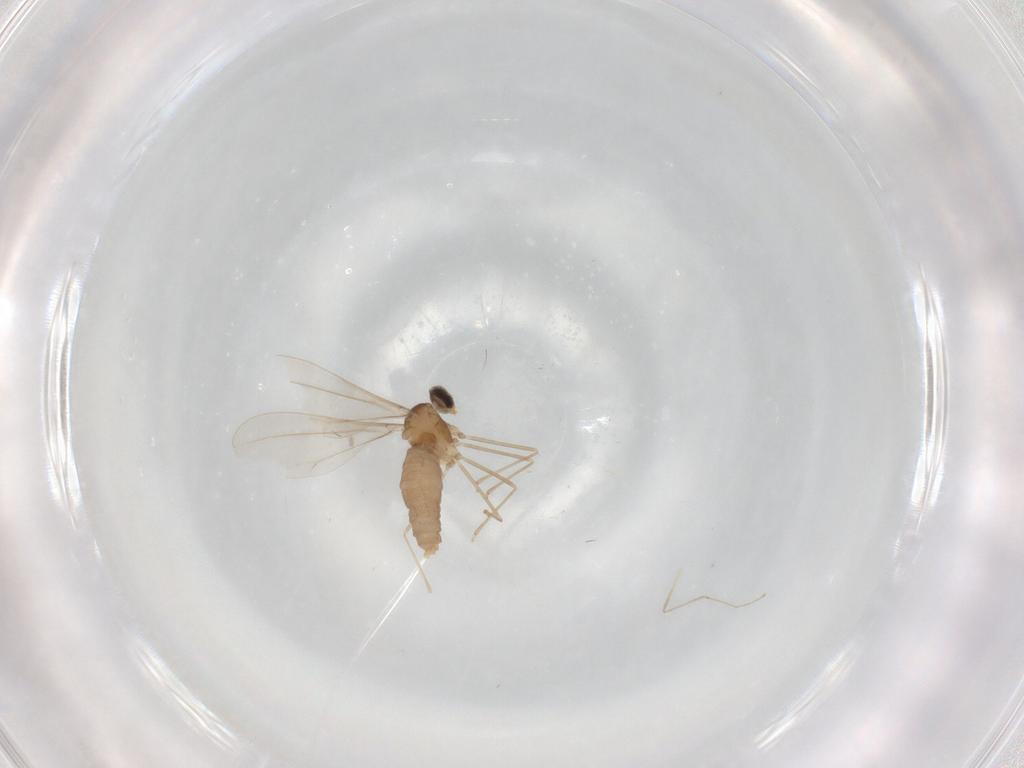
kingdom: Animalia
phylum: Arthropoda
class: Insecta
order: Diptera
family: Cecidomyiidae
